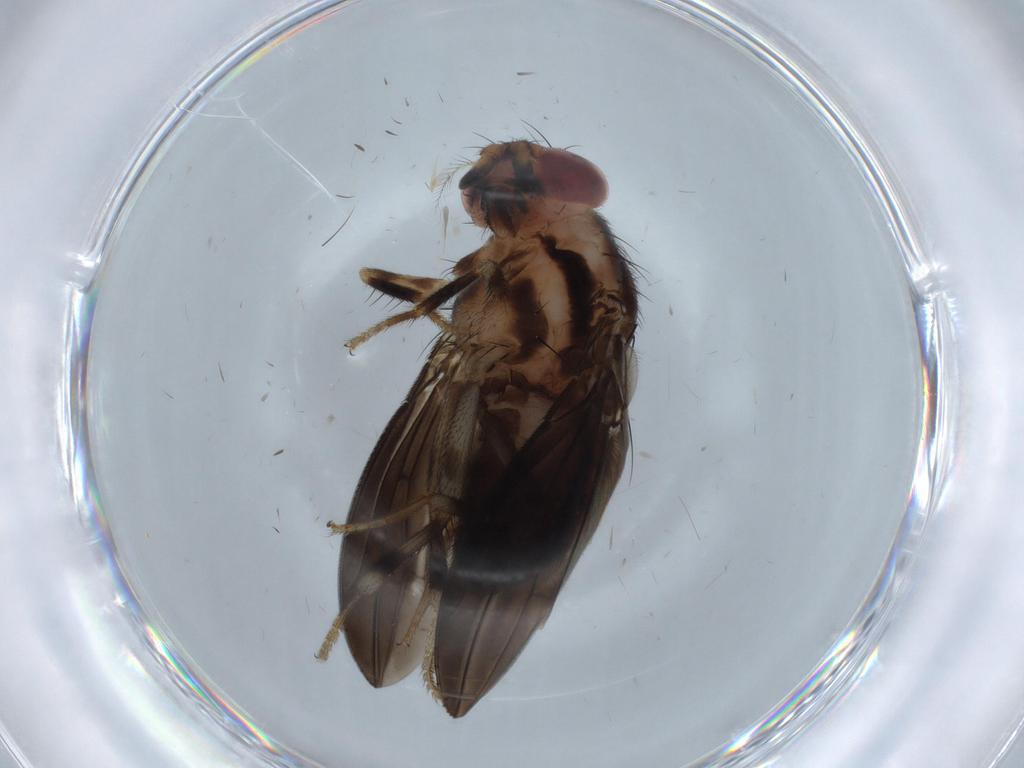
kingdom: Animalia
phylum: Arthropoda
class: Insecta
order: Diptera
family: Chironomidae
